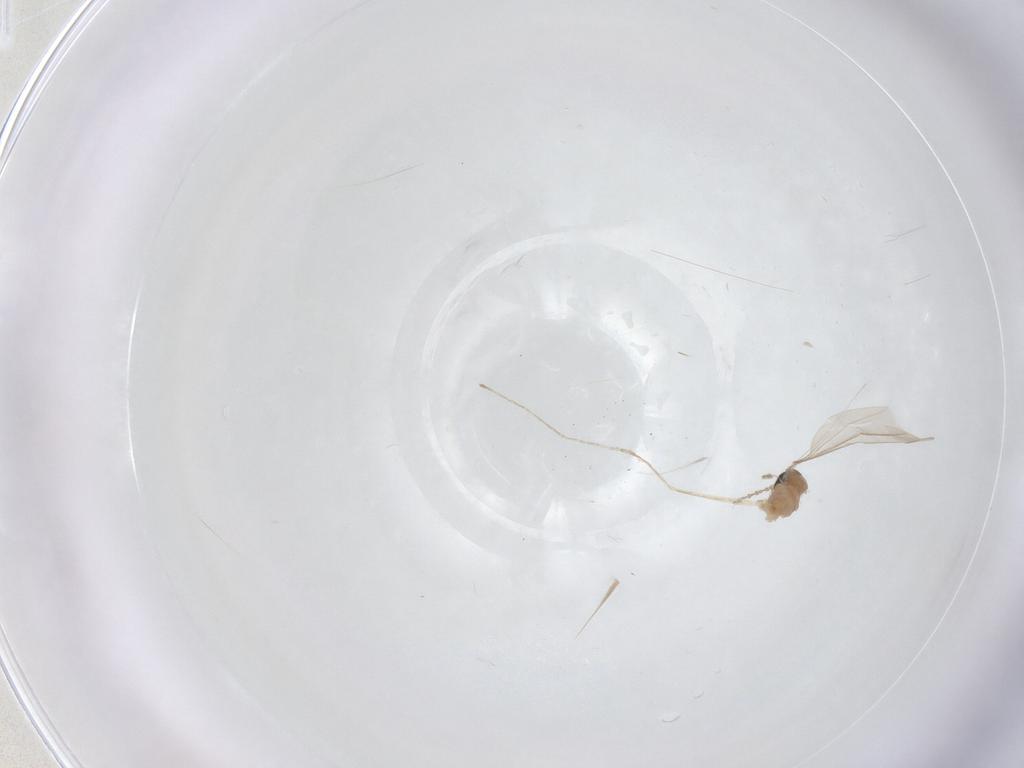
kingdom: Animalia
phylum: Arthropoda
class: Insecta
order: Diptera
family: Cecidomyiidae
